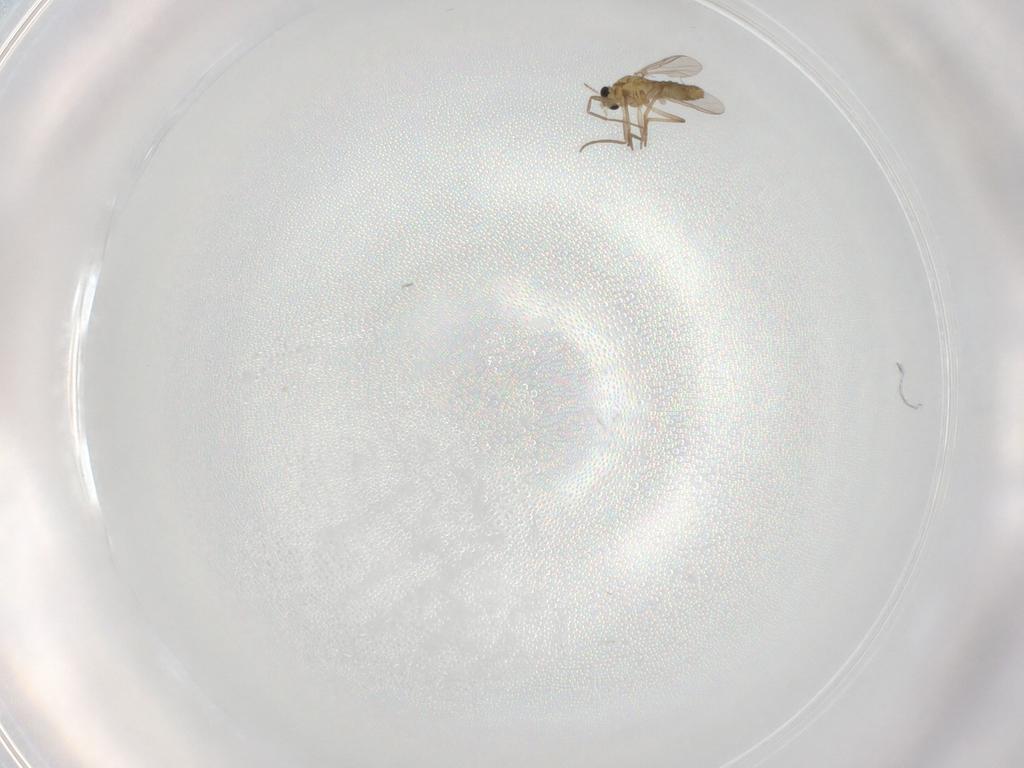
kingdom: Animalia
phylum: Arthropoda
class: Insecta
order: Diptera
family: Chironomidae
